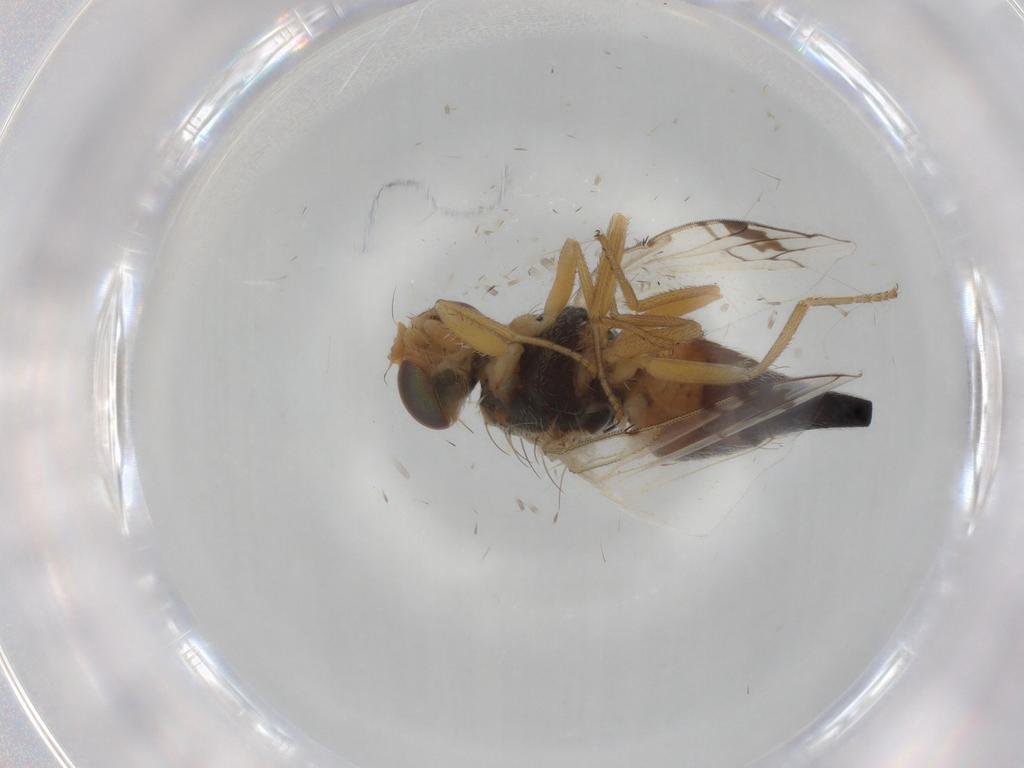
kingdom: Animalia
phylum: Arthropoda
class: Insecta
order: Diptera
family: Tephritidae
